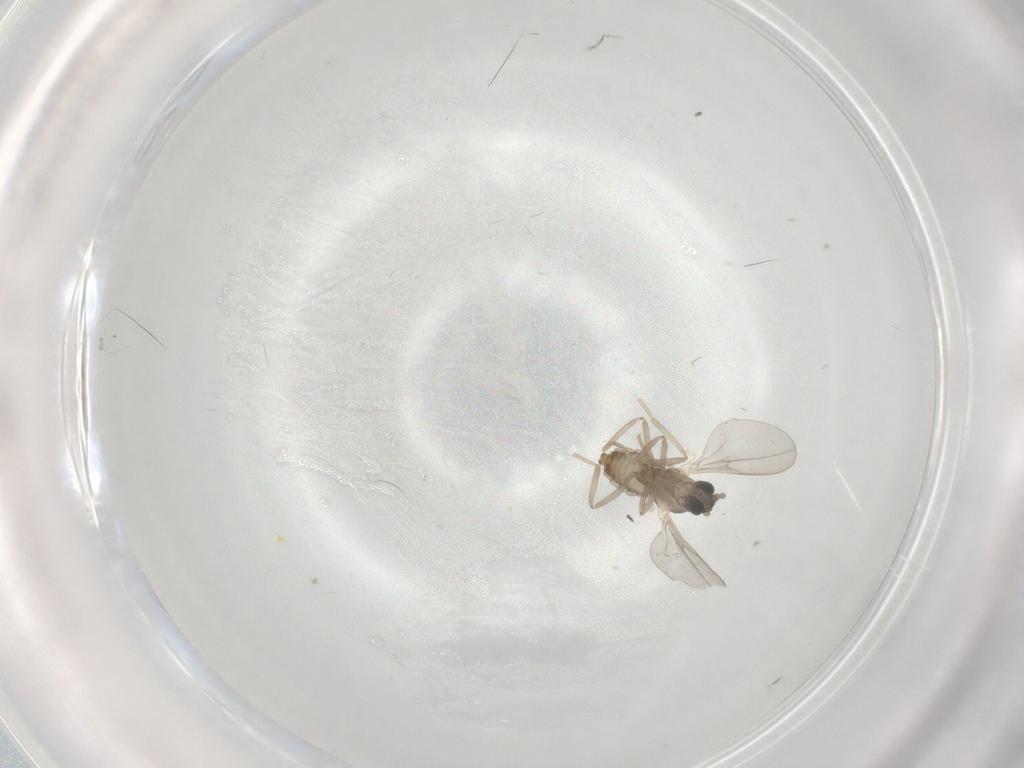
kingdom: Animalia
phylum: Arthropoda
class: Insecta
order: Diptera
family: Cecidomyiidae
